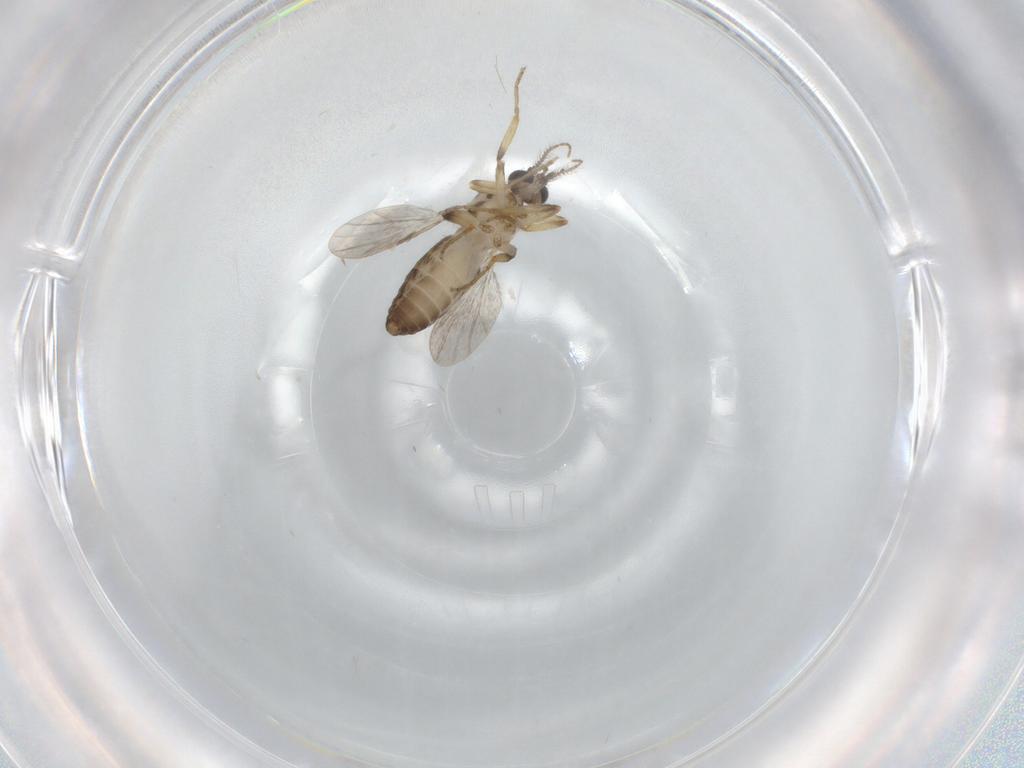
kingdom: Animalia
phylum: Arthropoda
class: Insecta
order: Diptera
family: Ceratopogonidae
